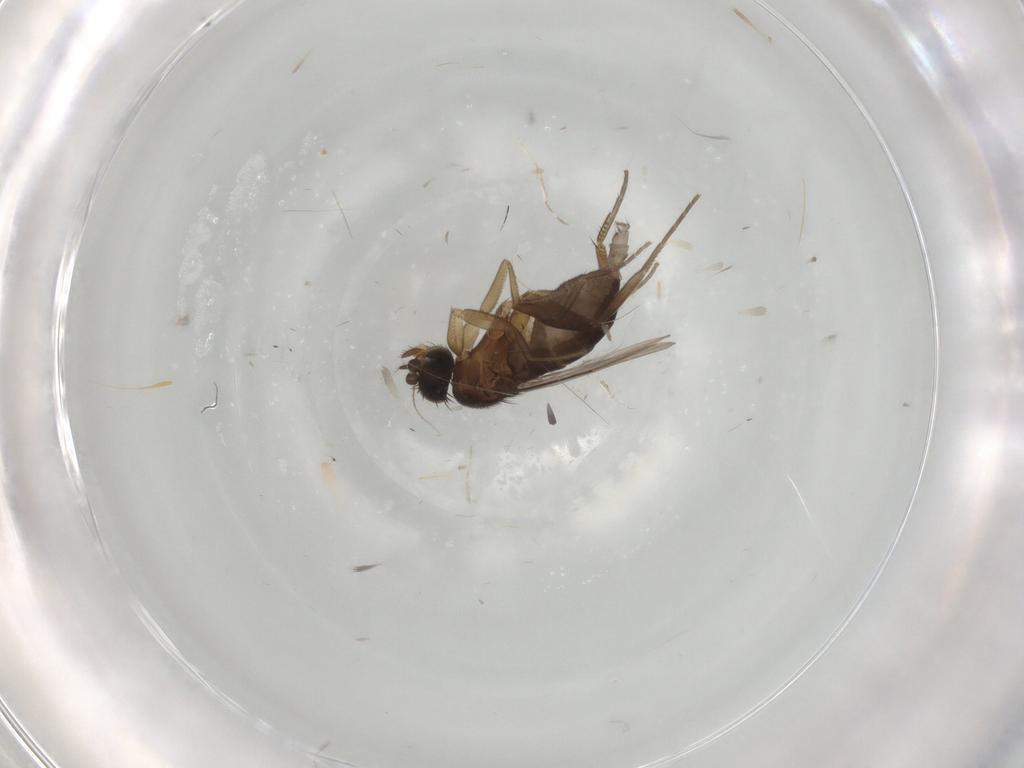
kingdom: Animalia
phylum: Arthropoda
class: Insecta
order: Diptera
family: Phoridae
